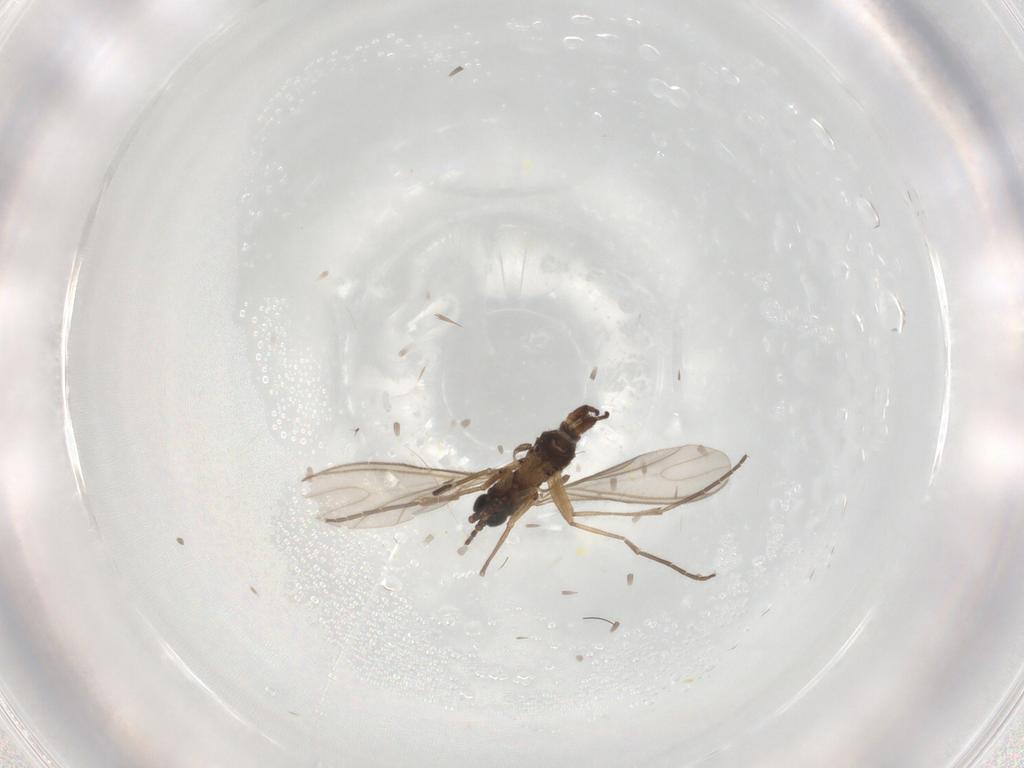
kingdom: Animalia
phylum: Arthropoda
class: Insecta
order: Diptera
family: Sciaridae
